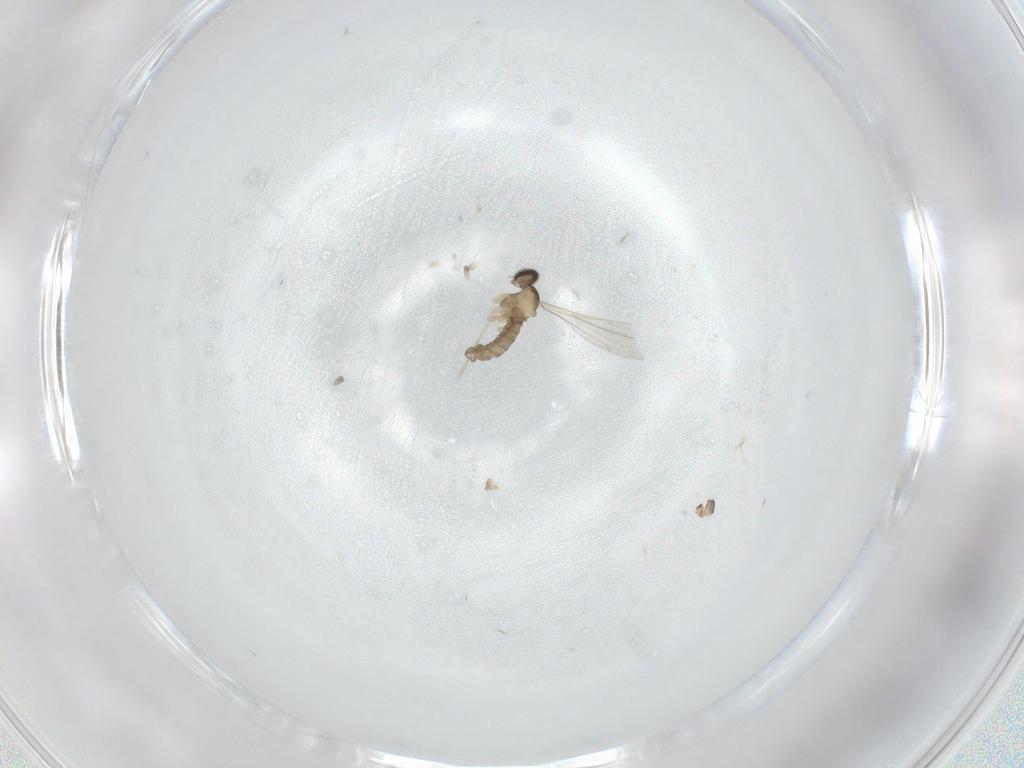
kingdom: Animalia
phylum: Arthropoda
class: Insecta
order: Diptera
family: Cecidomyiidae
